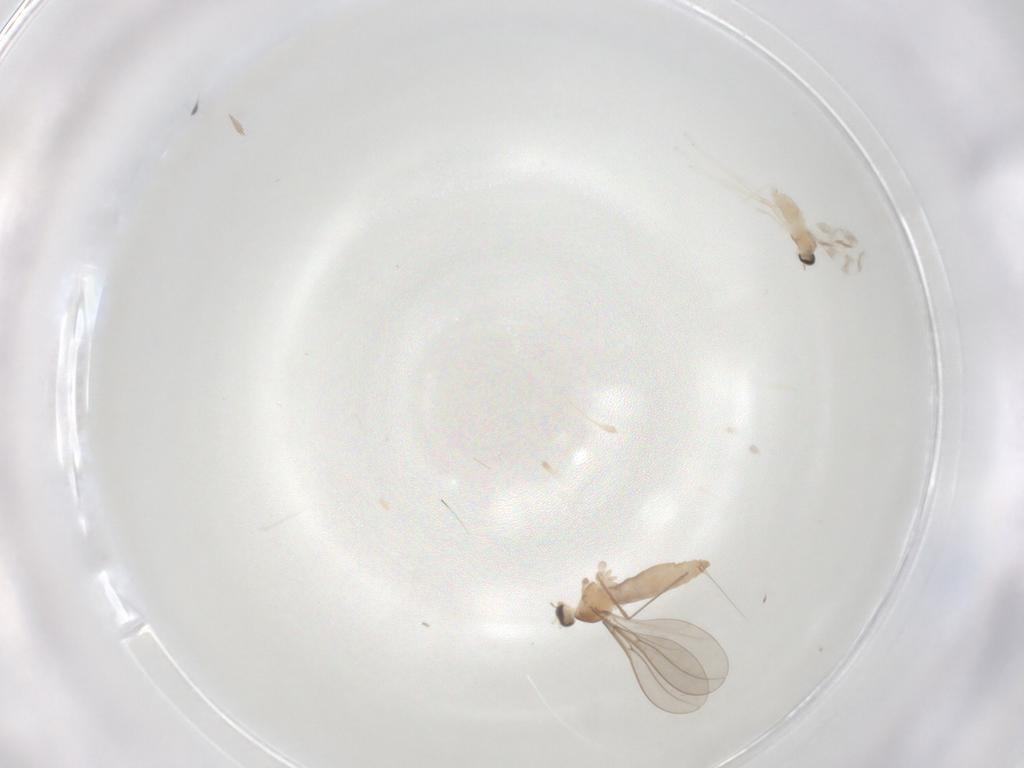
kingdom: Animalia
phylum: Arthropoda
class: Insecta
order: Diptera
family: Cecidomyiidae
